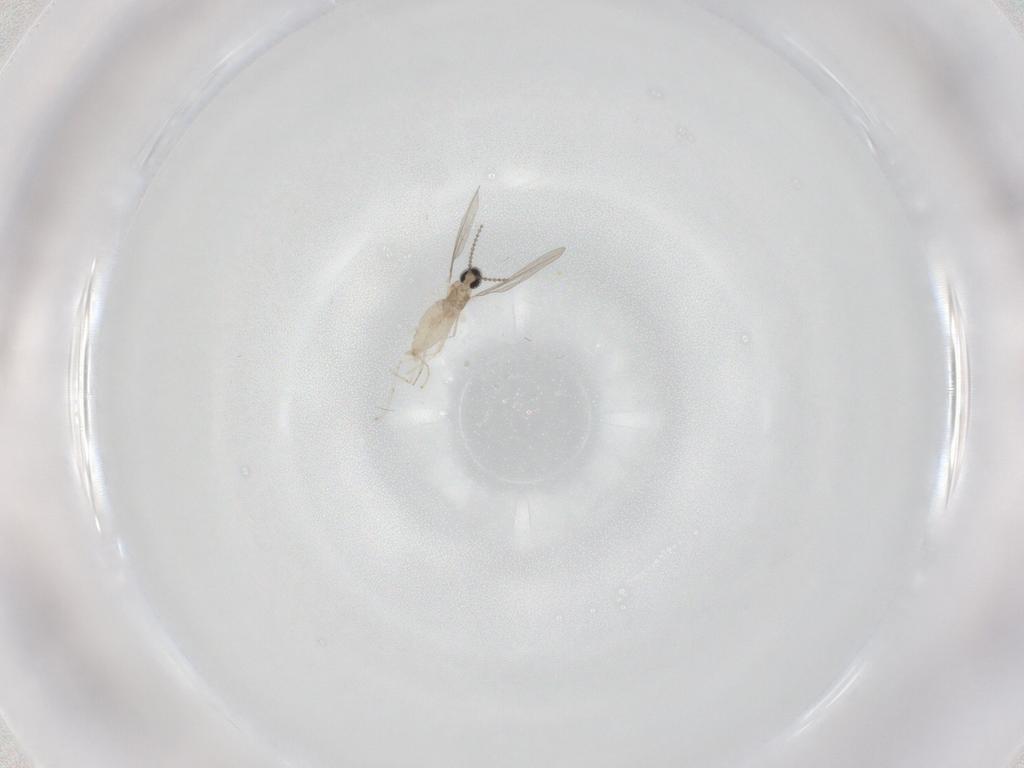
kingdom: Animalia
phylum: Arthropoda
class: Insecta
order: Diptera
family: Cecidomyiidae
